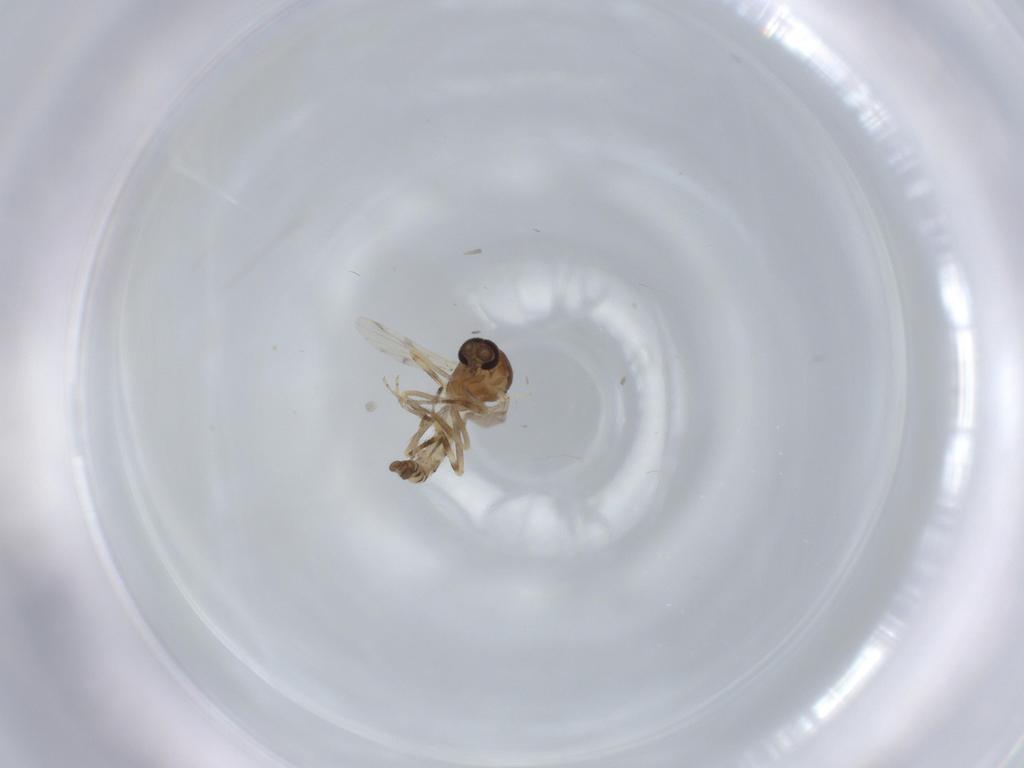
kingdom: Animalia
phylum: Arthropoda
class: Insecta
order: Diptera
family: Ceratopogonidae
